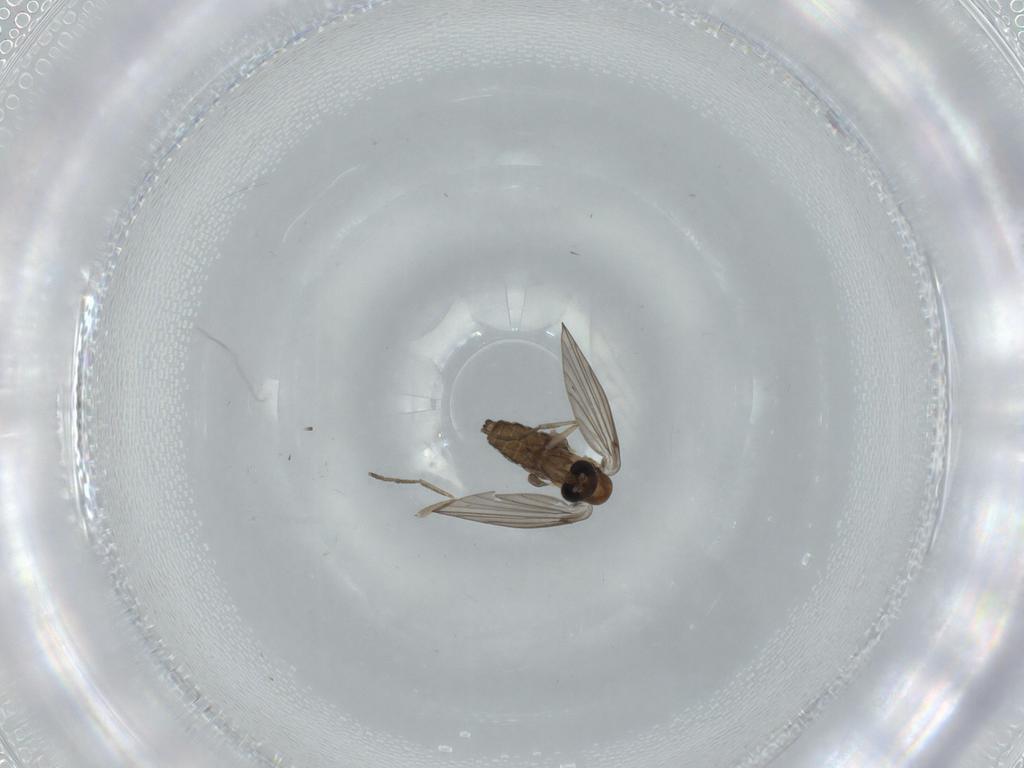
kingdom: Animalia
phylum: Arthropoda
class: Insecta
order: Diptera
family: Psychodidae
